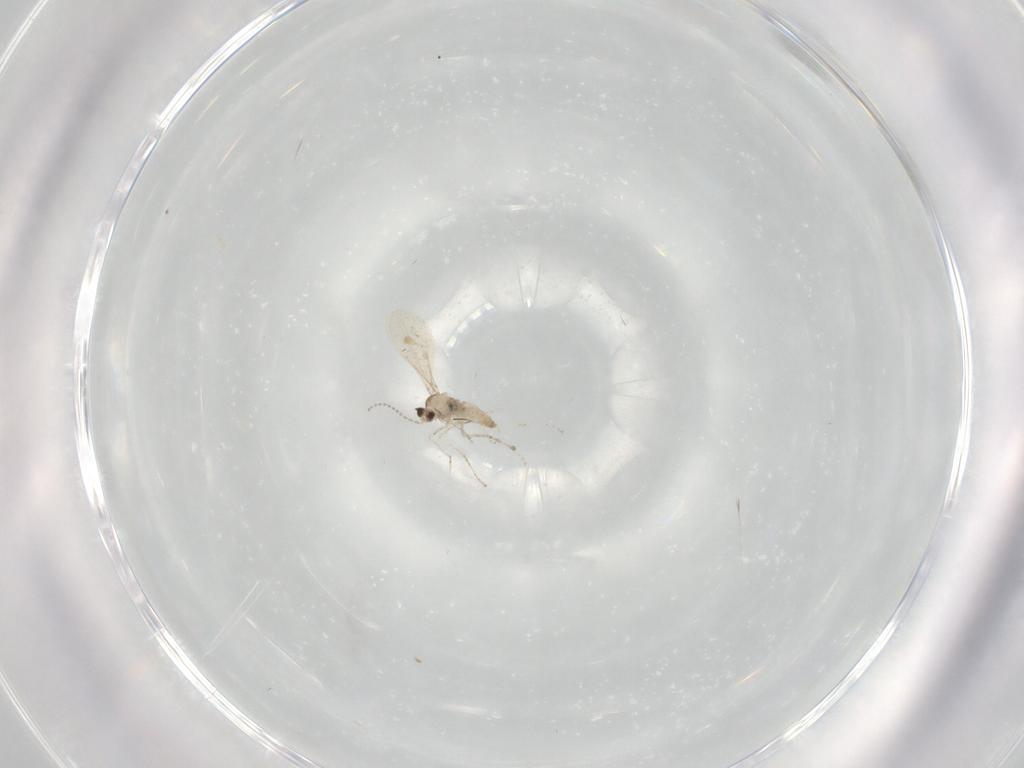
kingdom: Animalia
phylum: Arthropoda
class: Insecta
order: Diptera
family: Cecidomyiidae
